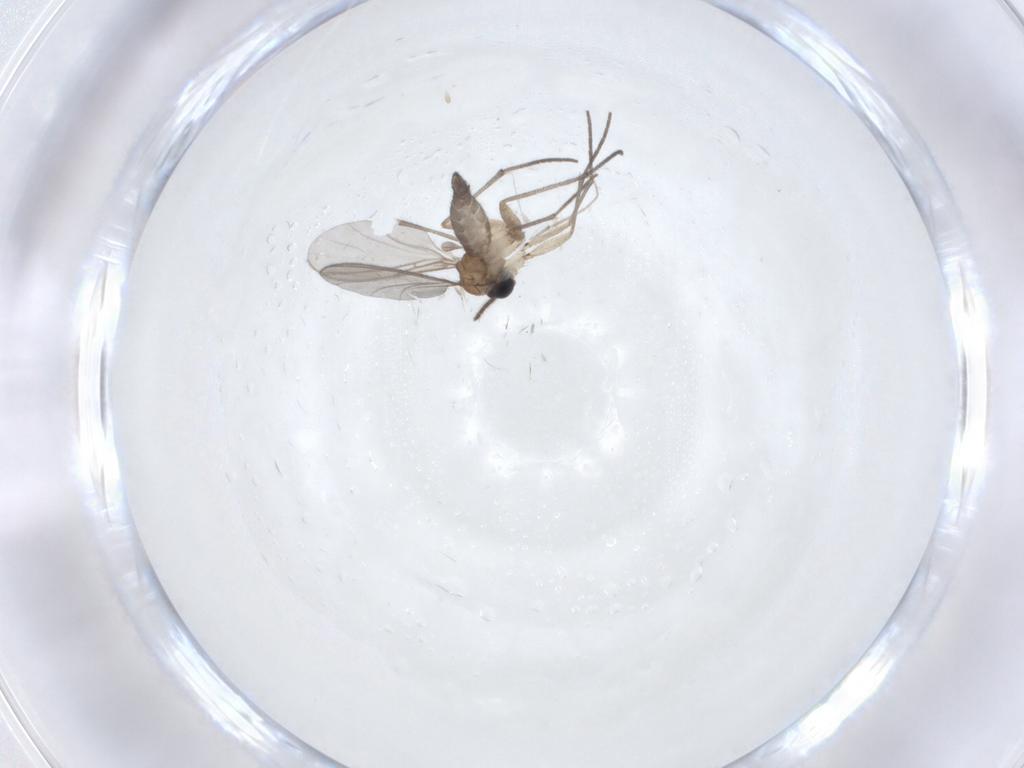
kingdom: Animalia
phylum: Arthropoda
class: Insecta
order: Diptera
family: Sciaridae
